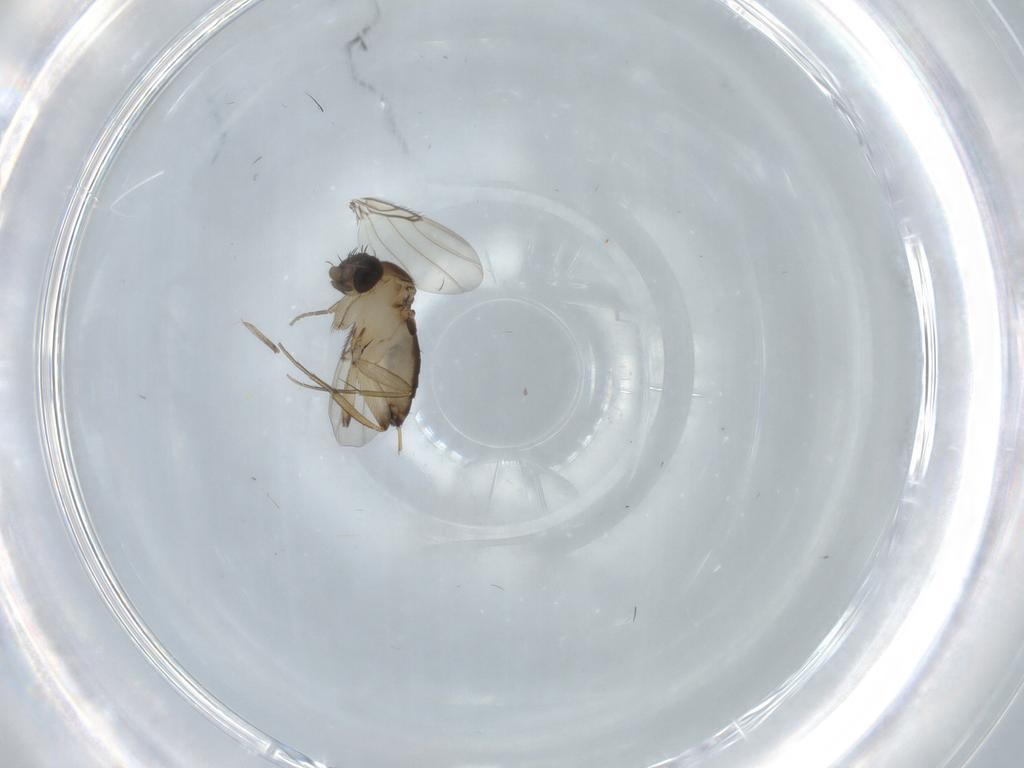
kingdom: Animalia
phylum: Arthropoda
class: Insecta
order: Diptera
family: Phoridae
